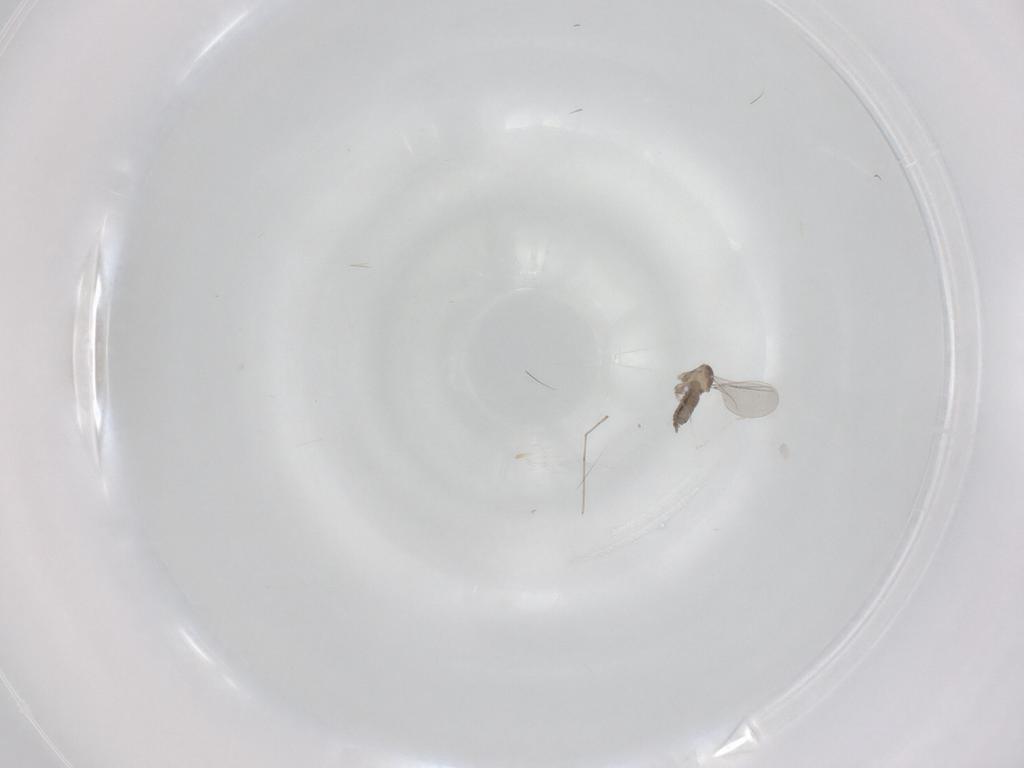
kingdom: Animalia
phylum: Arthropoda
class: Insecta
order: Diptera
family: Cecidomyiidae
